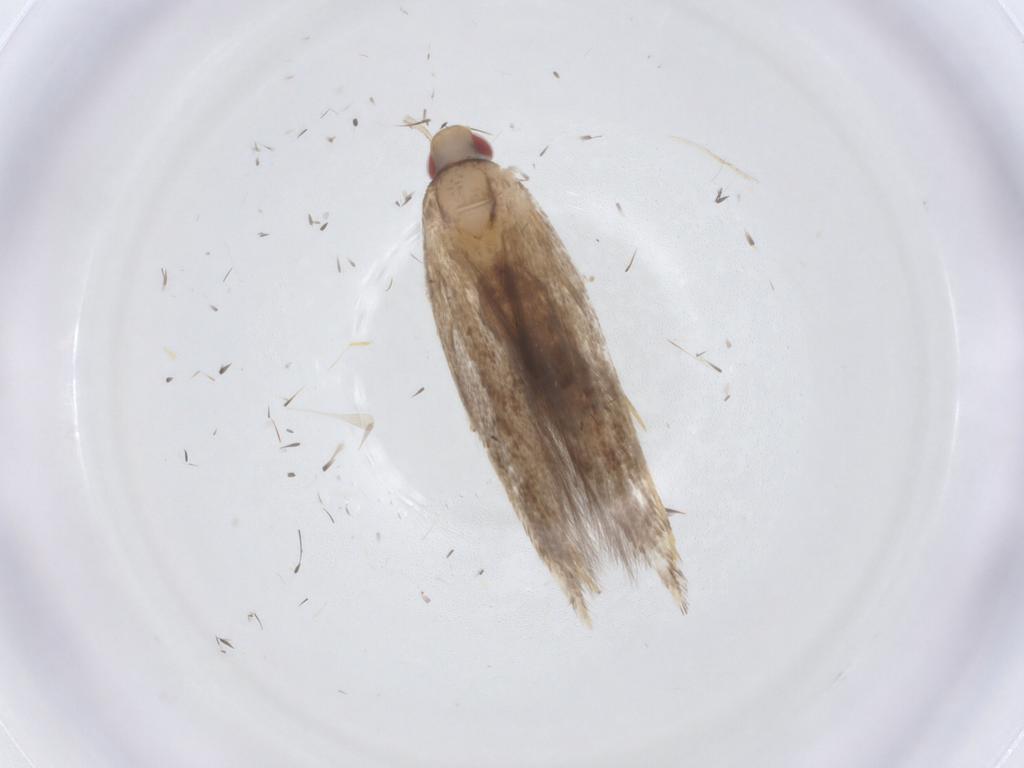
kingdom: Animalia
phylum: Arthropoda
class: Insecta
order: Lepidoptera
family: Cosmopterigidae
